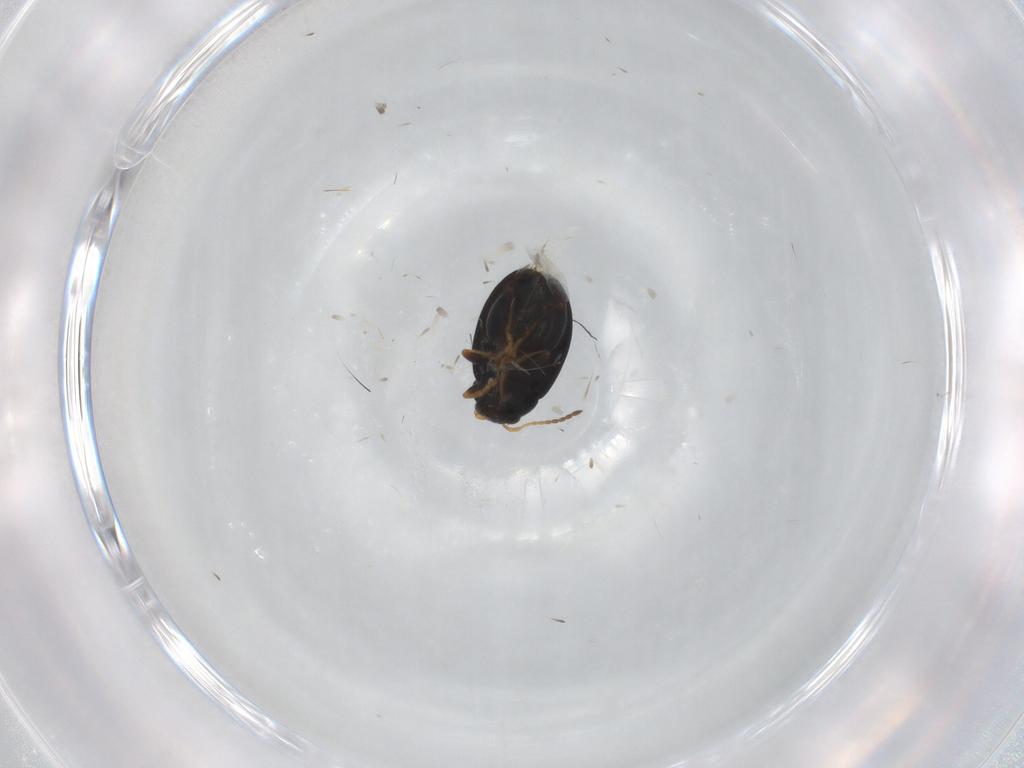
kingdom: Animalia
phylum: Arthropoda
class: Insecta
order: Coleoptera
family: Chrysomelidae
